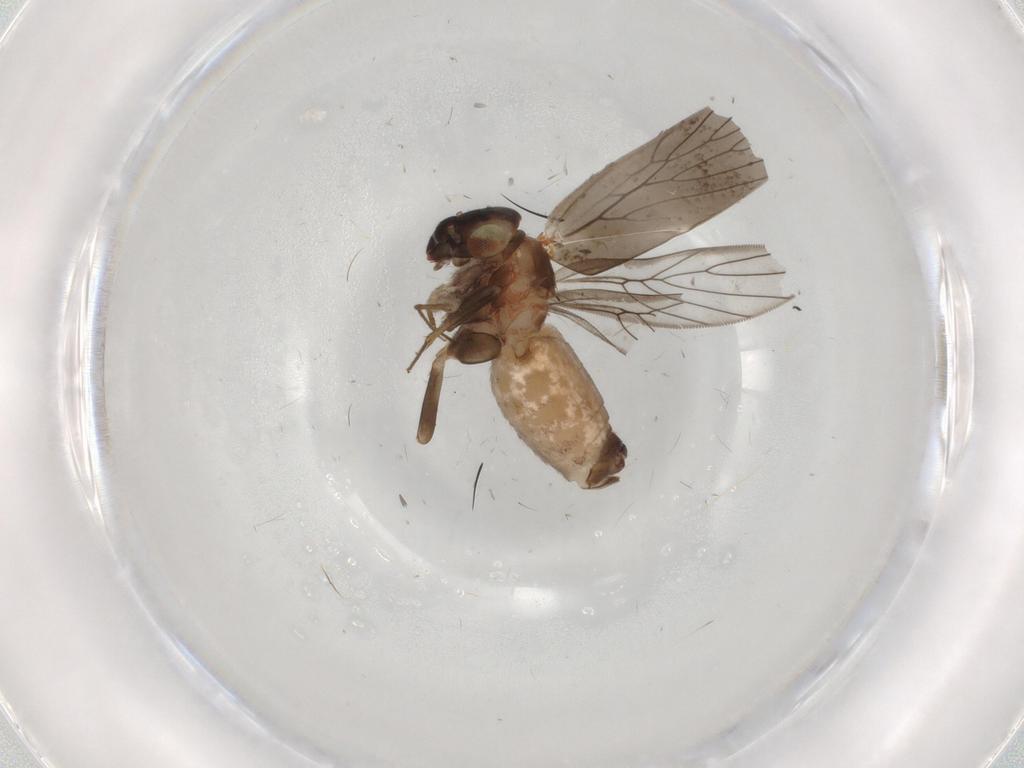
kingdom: Animalia
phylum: Arthropoda
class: Insecta
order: Psocodea
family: Lepidopsocidae
